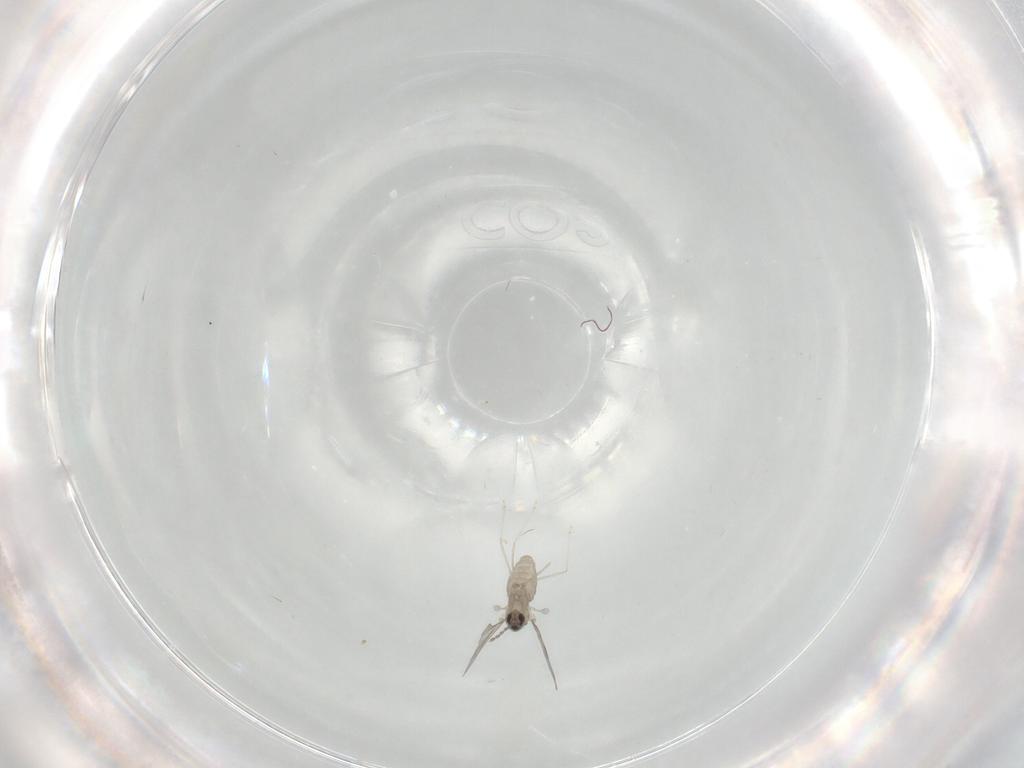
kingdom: Animalia
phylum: Arthropoda
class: Insecta
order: Diptera
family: Cecidomyiidae
